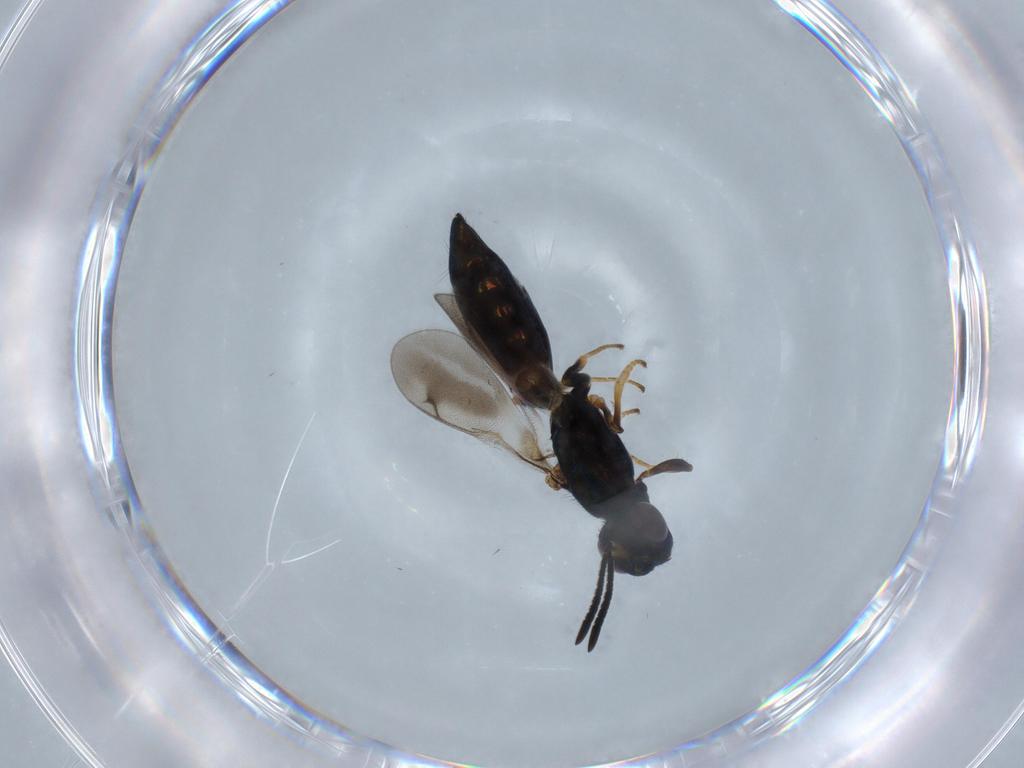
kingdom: Animalia
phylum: Arthropoda
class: Insecta
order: Hymenoptera
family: Pteromalidae
